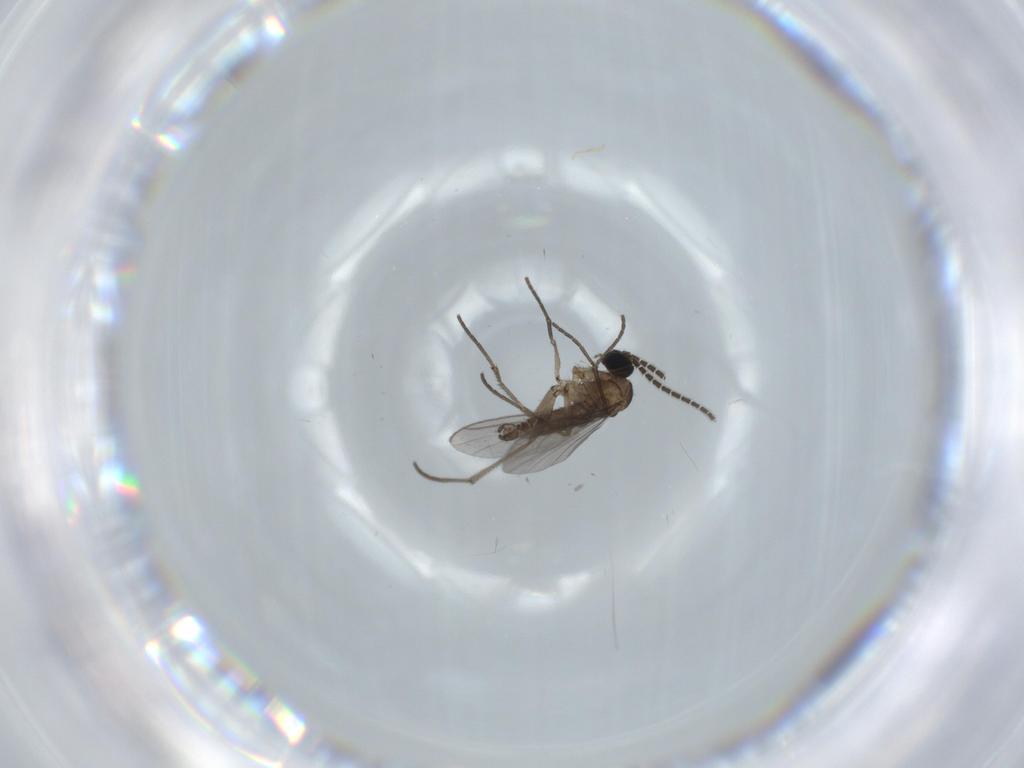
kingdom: Animalia
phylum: Arthropoda
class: Insecta
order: Diptera
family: Sciaridae
